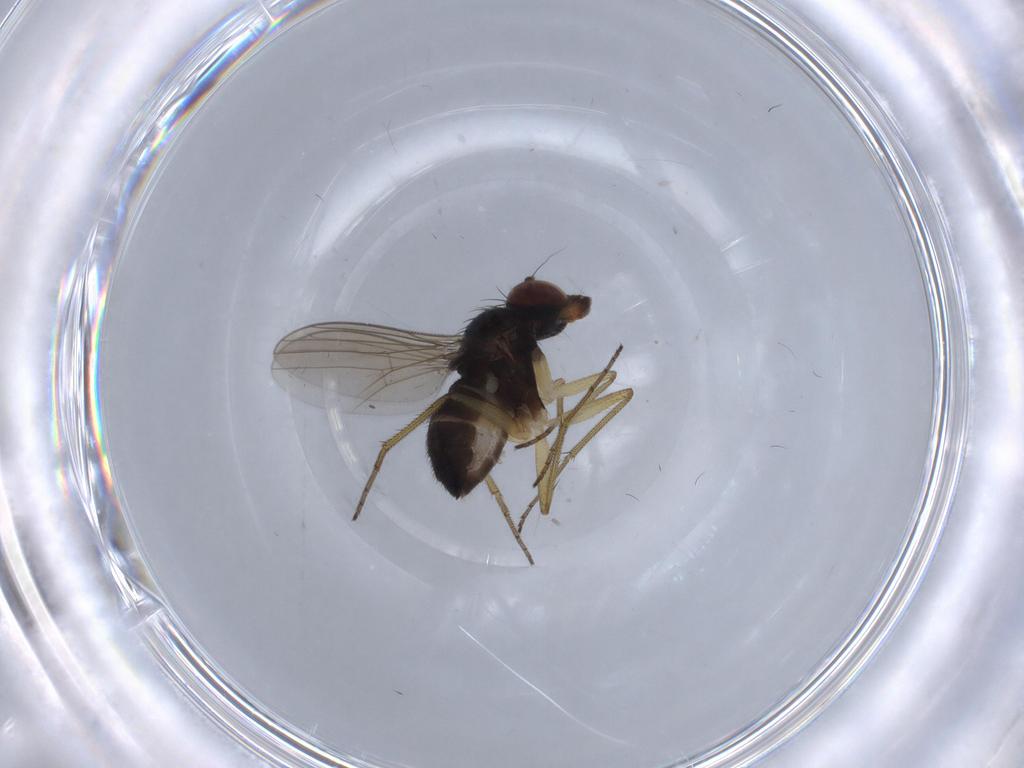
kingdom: Animalia
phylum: Arthropoda
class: Insecta
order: Diptera
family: Dolichopodidae
